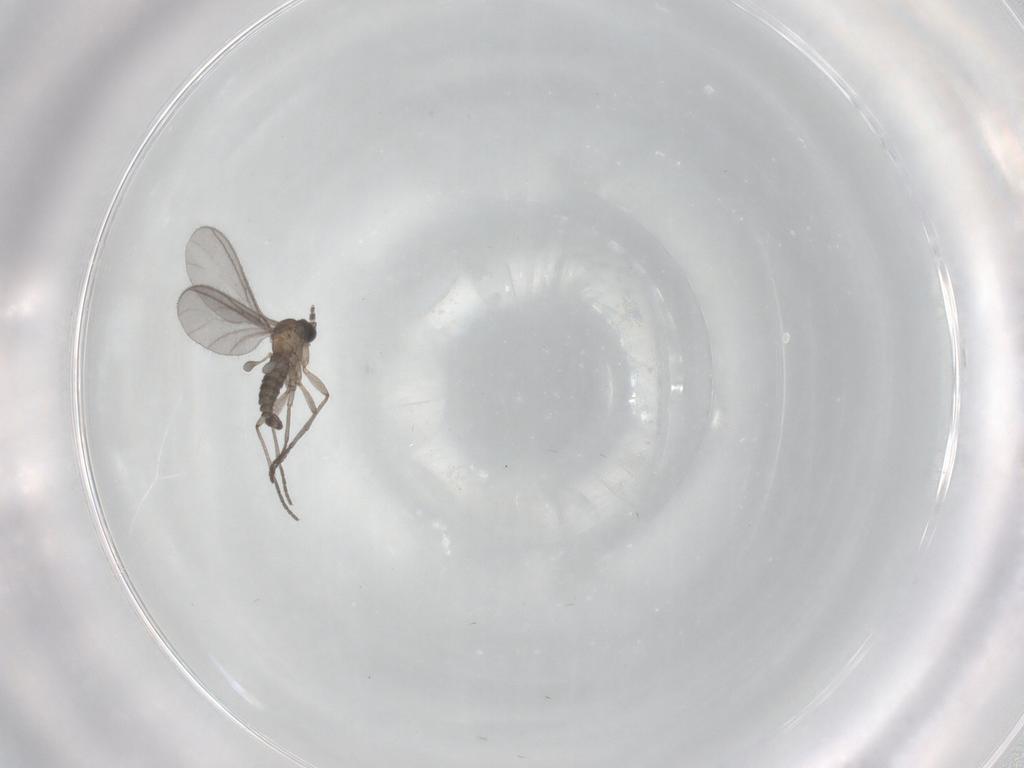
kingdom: Animalia
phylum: Arthropoda
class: Insecta
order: Diptera
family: Sciaridae
